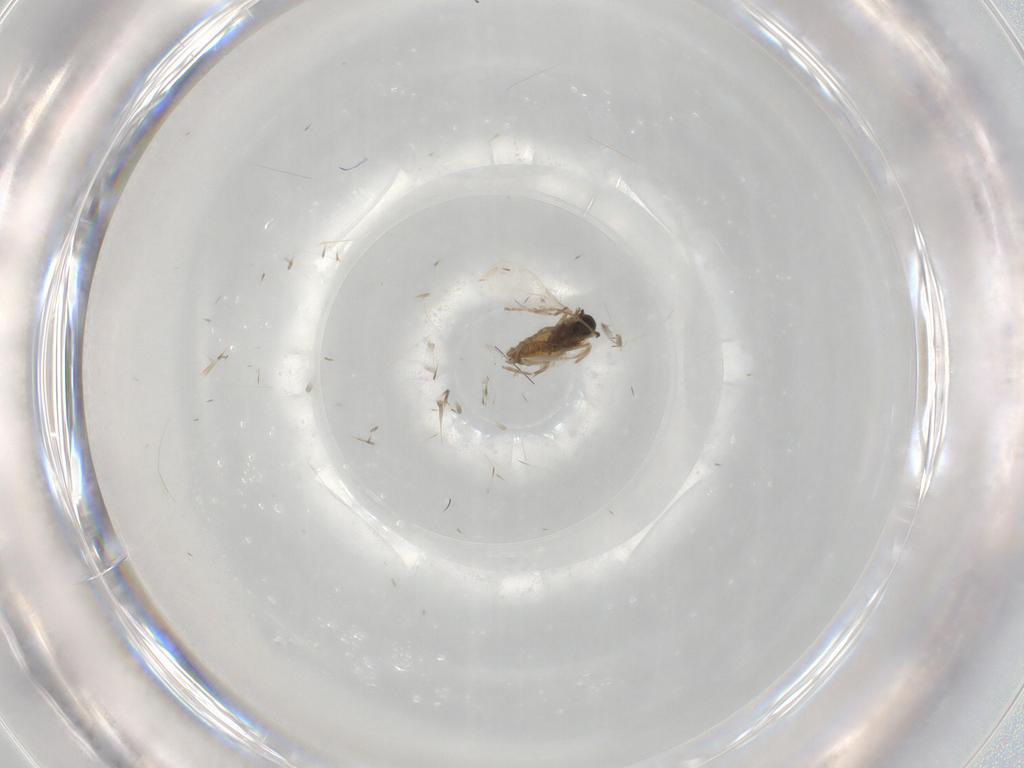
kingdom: Animalia
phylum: Arthropoda
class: Insecta
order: Diptera
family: Cecidomyiidae
